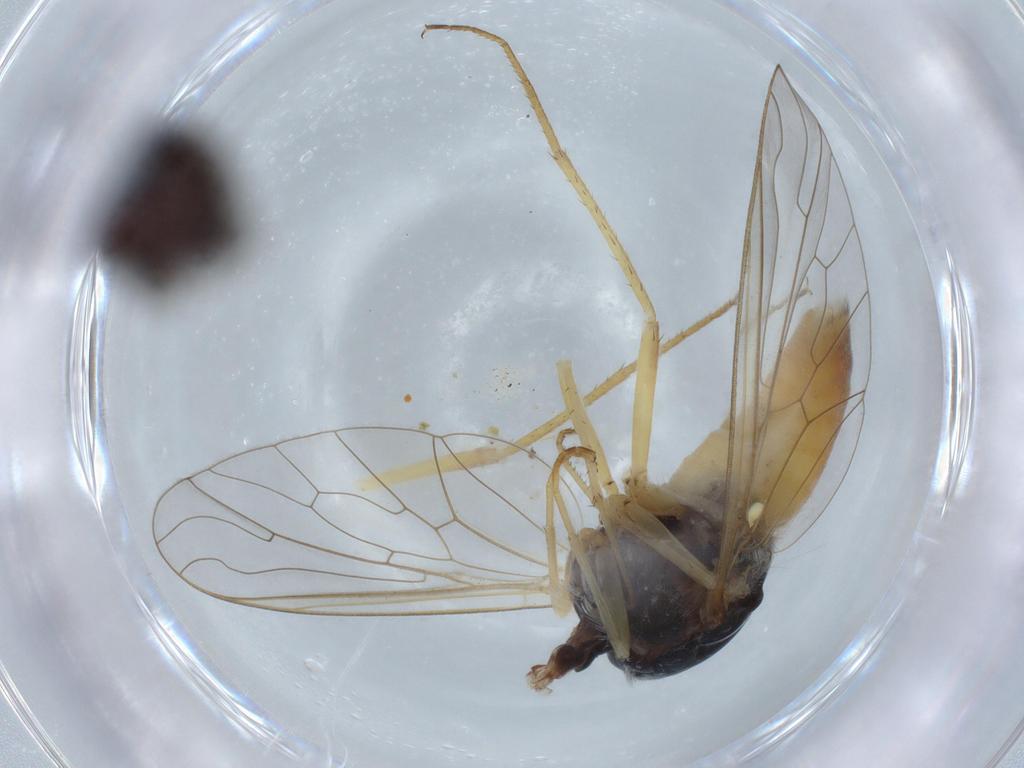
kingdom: Animalia
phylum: Arthropoda
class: Insecta
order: Diptera
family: Bombyliidae
